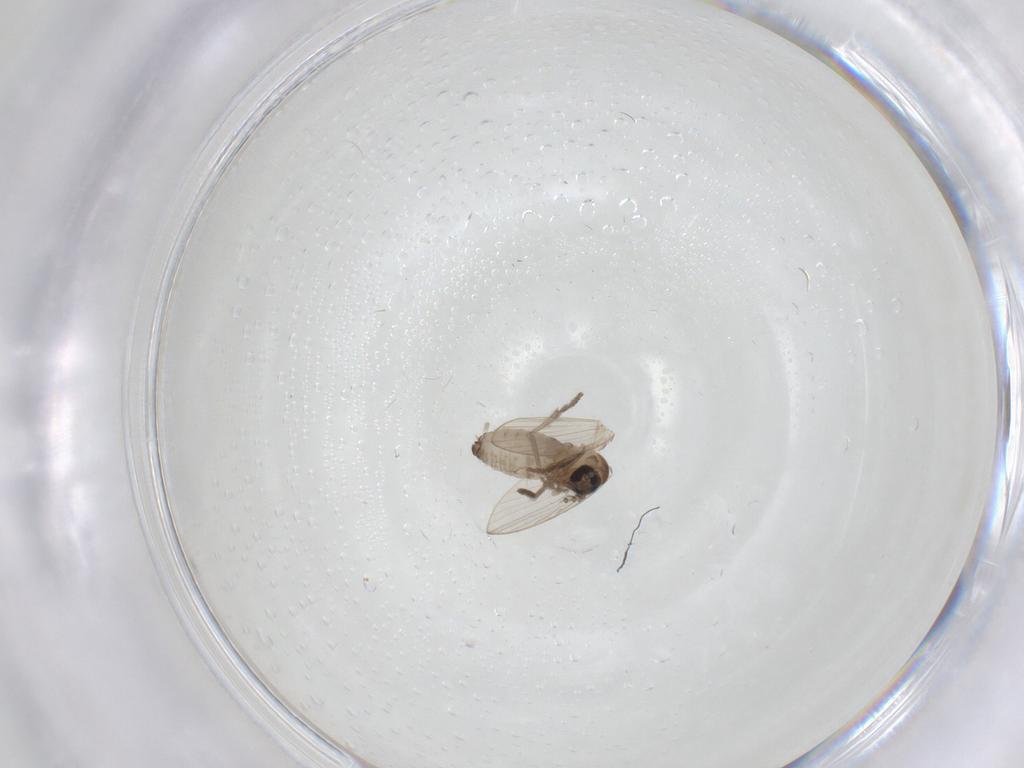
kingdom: Animalia
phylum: Arthropoda
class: Insecta
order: Diptera
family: Psychodidae
